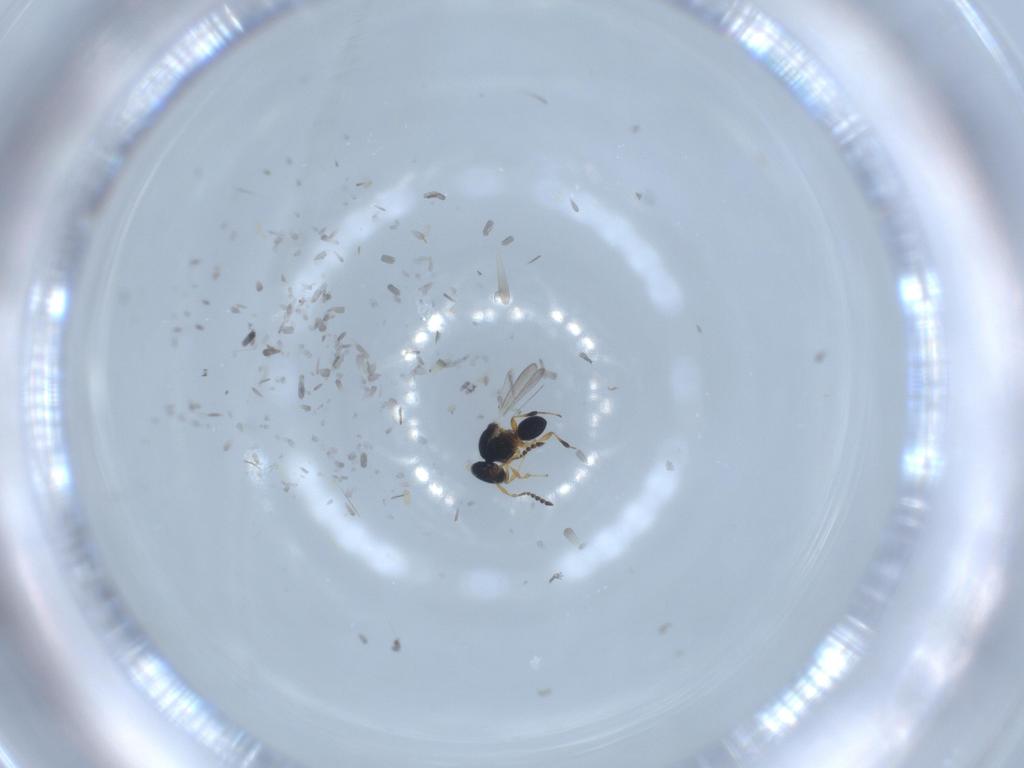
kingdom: Animalia
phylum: Arthropoda
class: Insecta
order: Hymenoptera
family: Platygastridae
